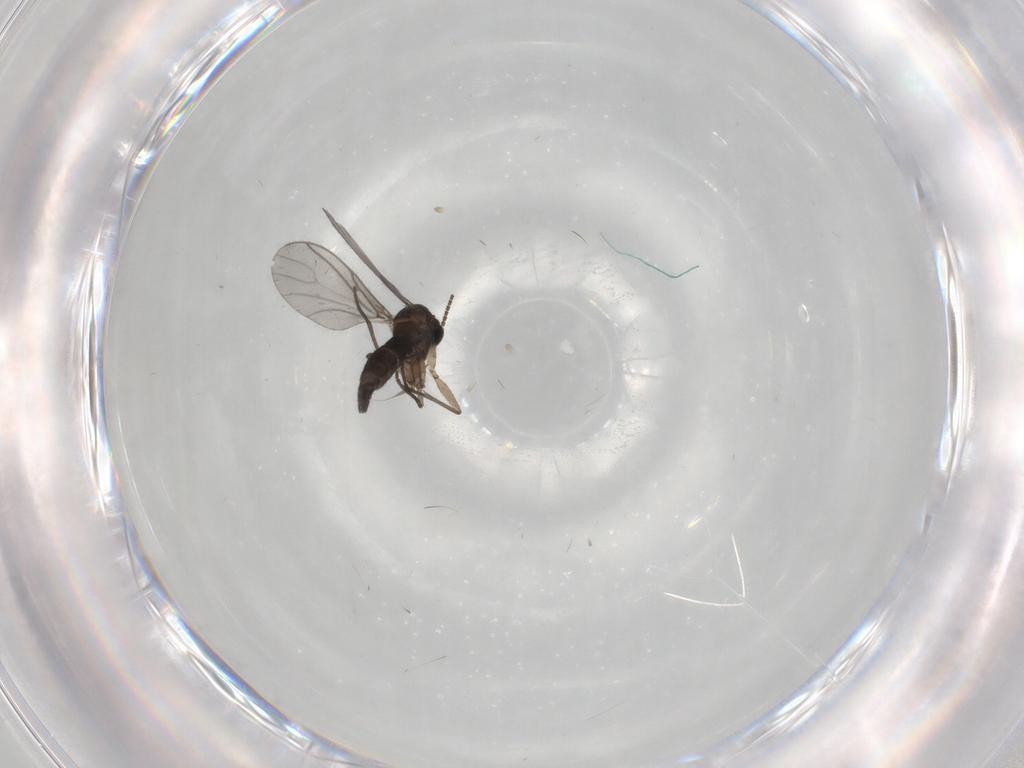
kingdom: Animalia
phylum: Arthropoda
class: Insecta
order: Diptera
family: Sciaridae
